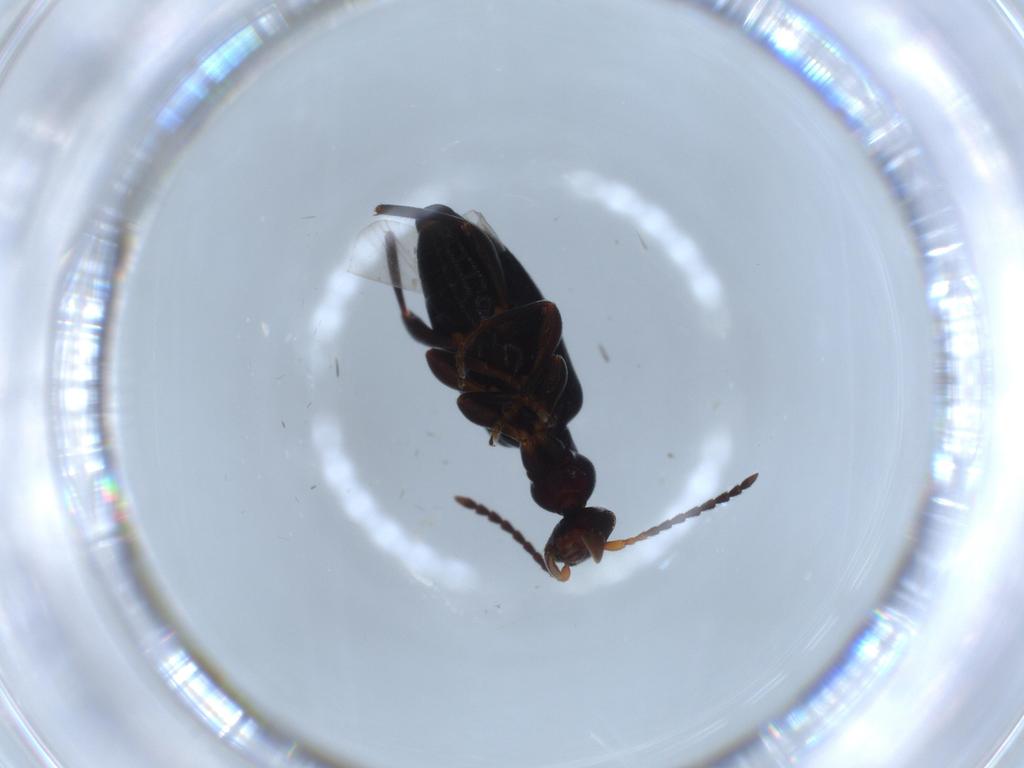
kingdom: Animalia
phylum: Arthropoda
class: Insecta
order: Coleoptera
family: Anthicidae
